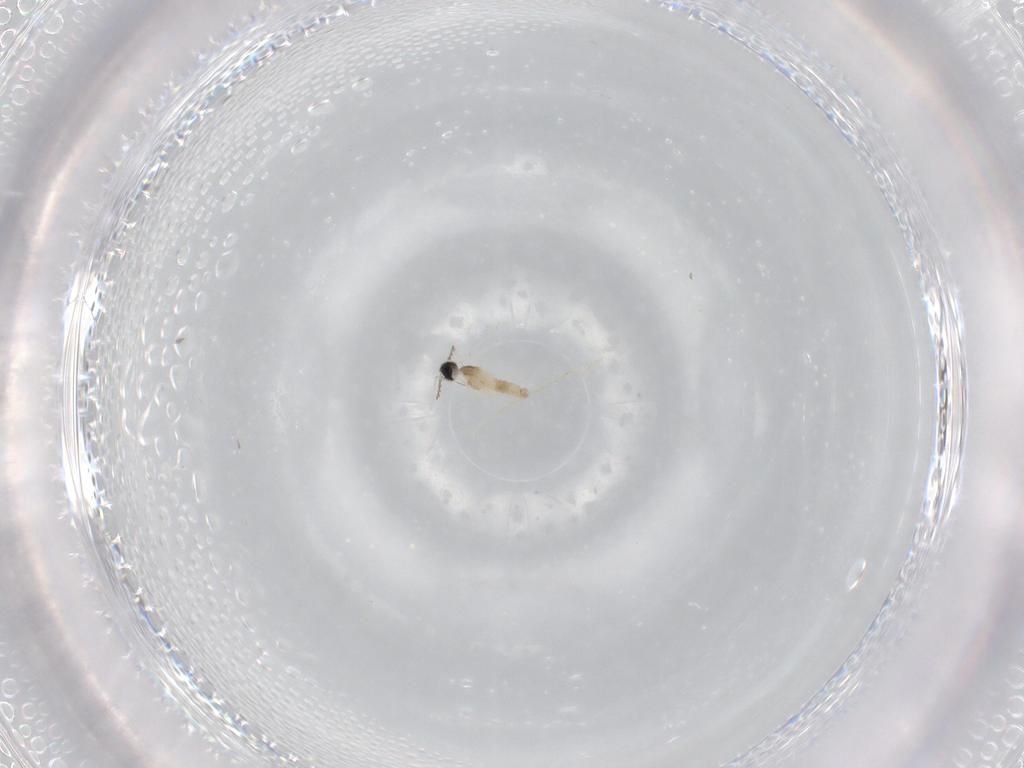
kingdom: Animalia
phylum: Arthropoda
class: Insecta
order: Diptera
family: Cecidomyiidae
